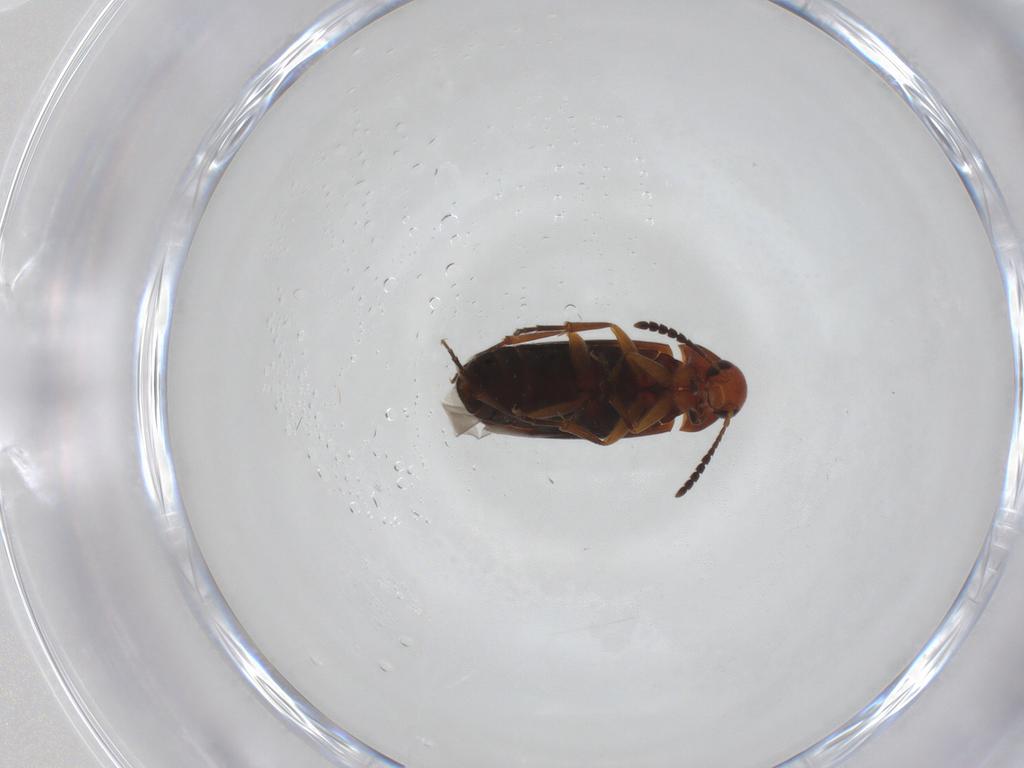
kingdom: Animalia
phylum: Arthropoda
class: Insecta
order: Coleoptera
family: Scraptiidae
